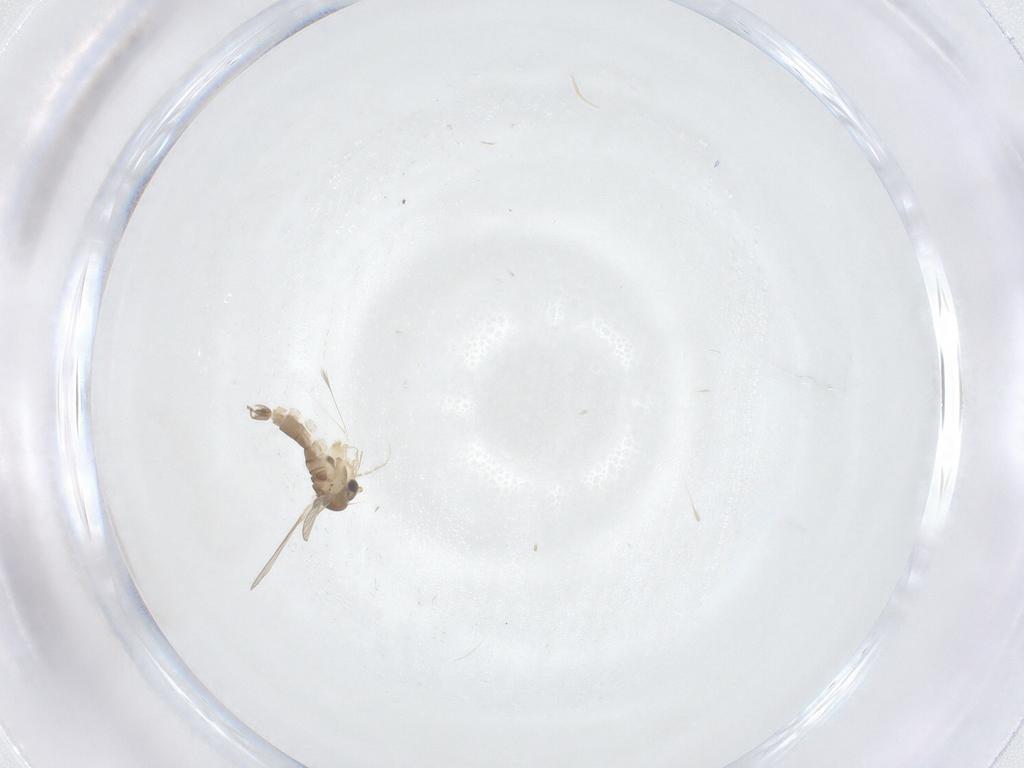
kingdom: Animalia
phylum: Arthropoda
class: Insecta
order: Diptera
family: Psychodidae
